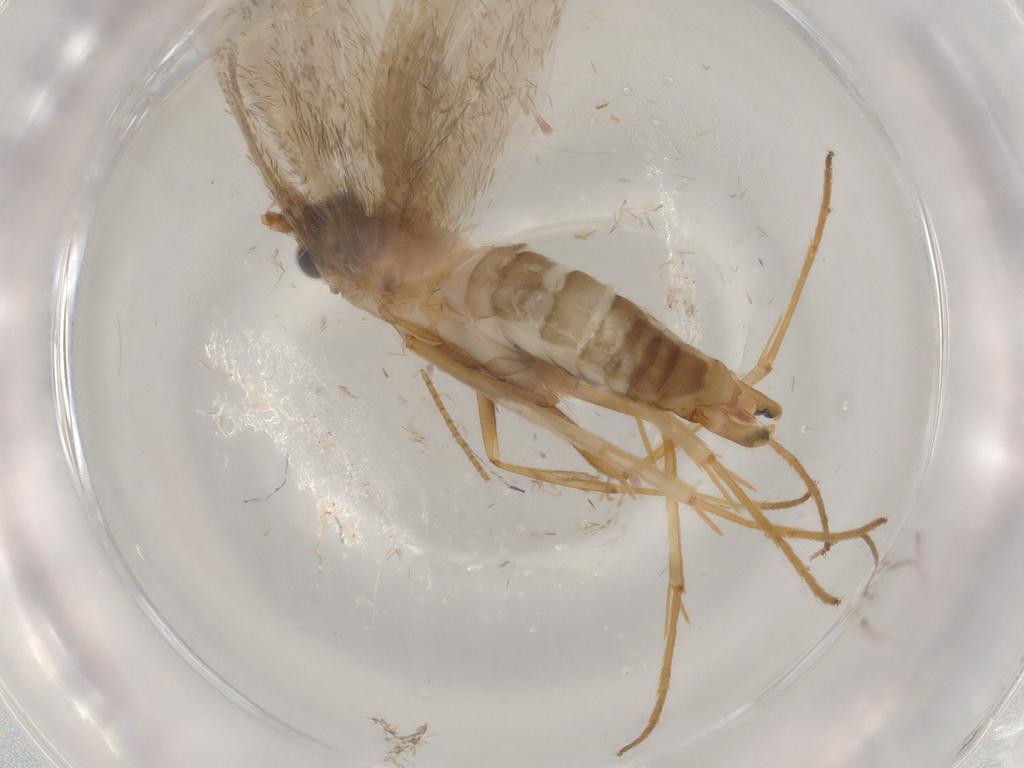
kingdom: Animalia
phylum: Arthropoda
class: Insecta
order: Lepidoptera
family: Adelidae
